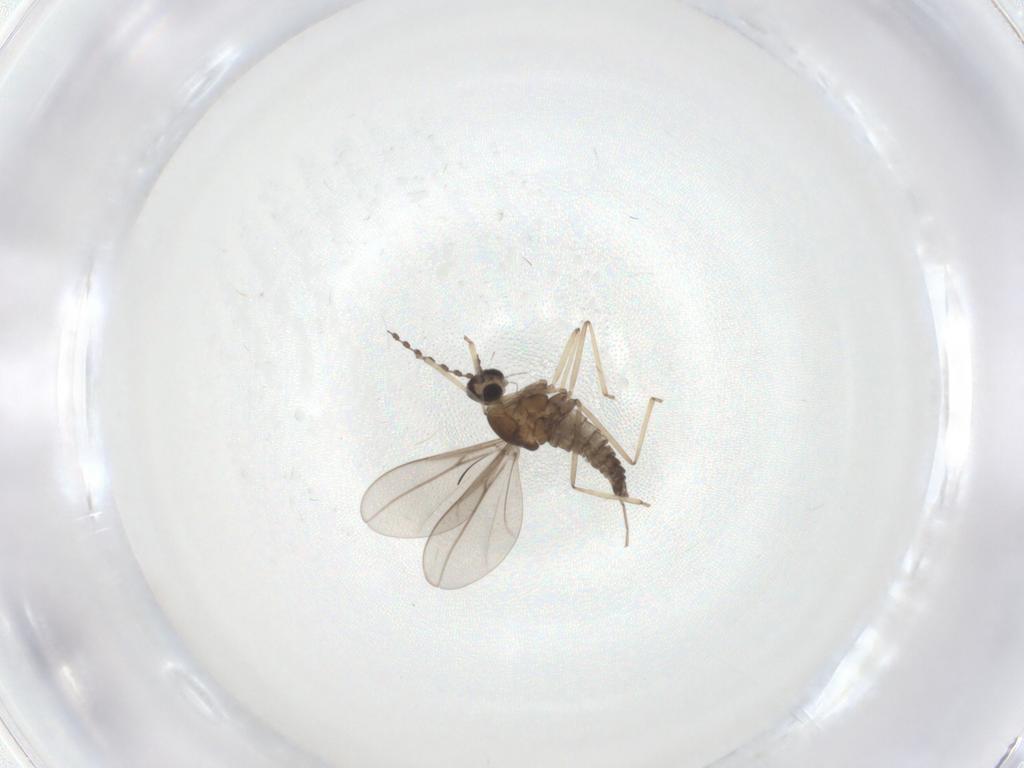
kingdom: Animalia
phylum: Arthropoda
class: Insecta
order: Diptera
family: Cecidomyiidae
